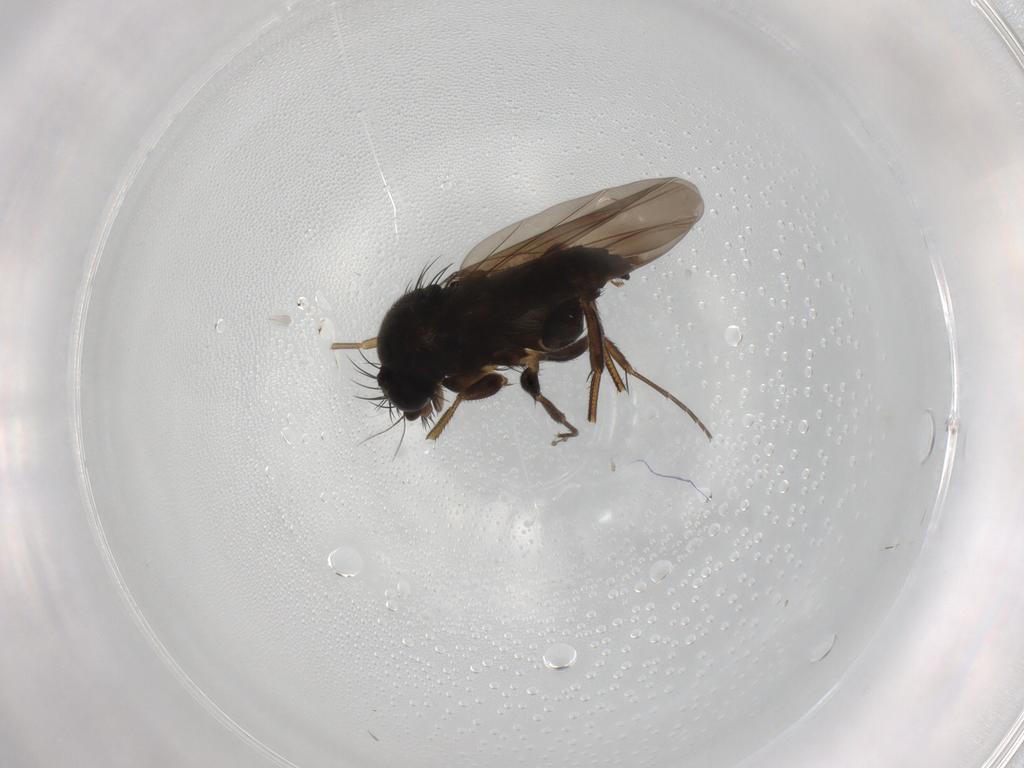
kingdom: Animalia
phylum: Arthropoda
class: Insecta
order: Diptera
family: Phoridae
